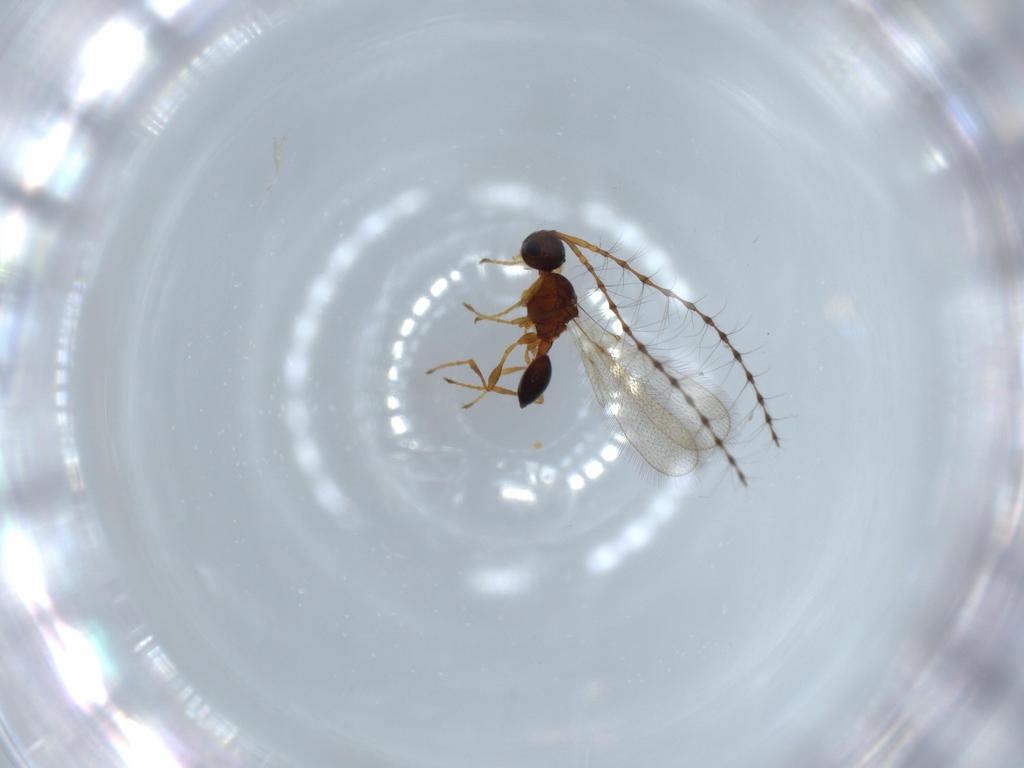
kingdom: Animalia
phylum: Arthropoda
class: Insecta
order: Hymenoptera
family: Diapriidae
